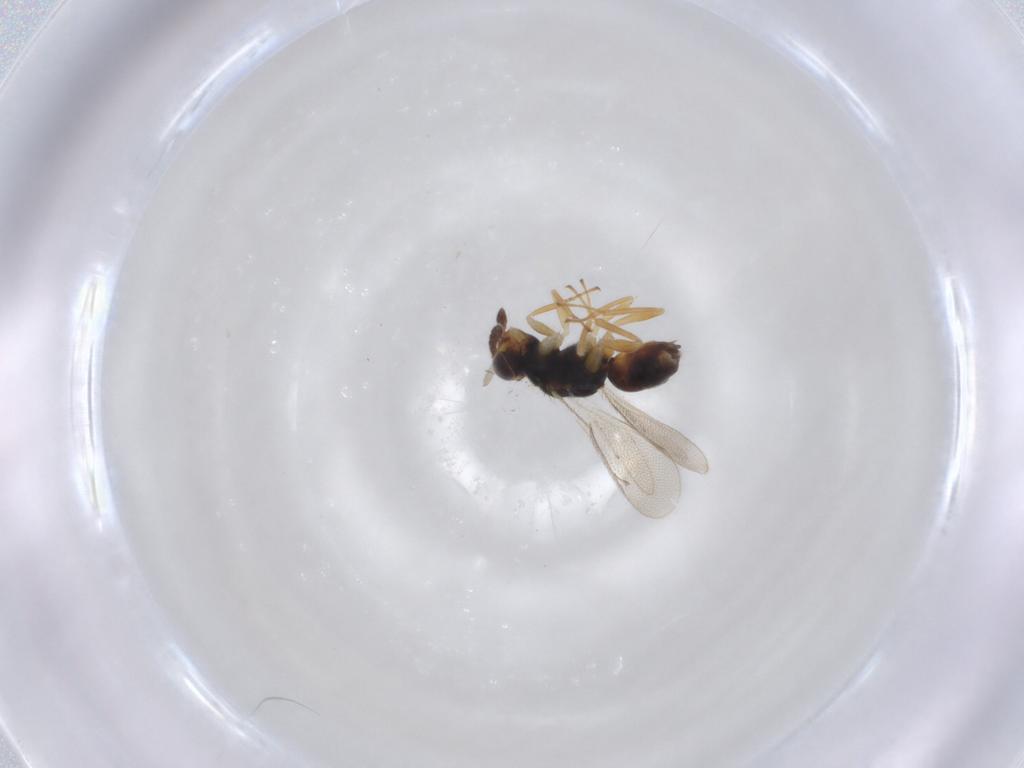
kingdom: Animalia
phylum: Arthropoda
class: Insecta
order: Hymenoptera
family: Eulophidae
